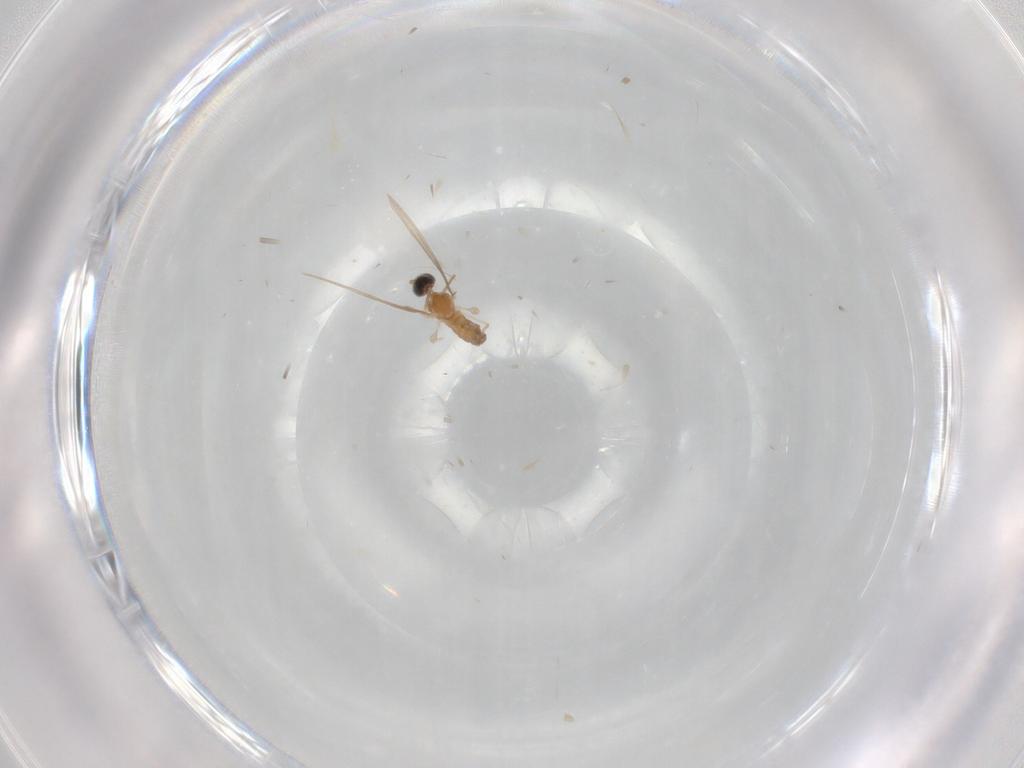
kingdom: Animalia
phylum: Arthropoda
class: Insecta
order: Diptera
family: Cecidomyiidae
